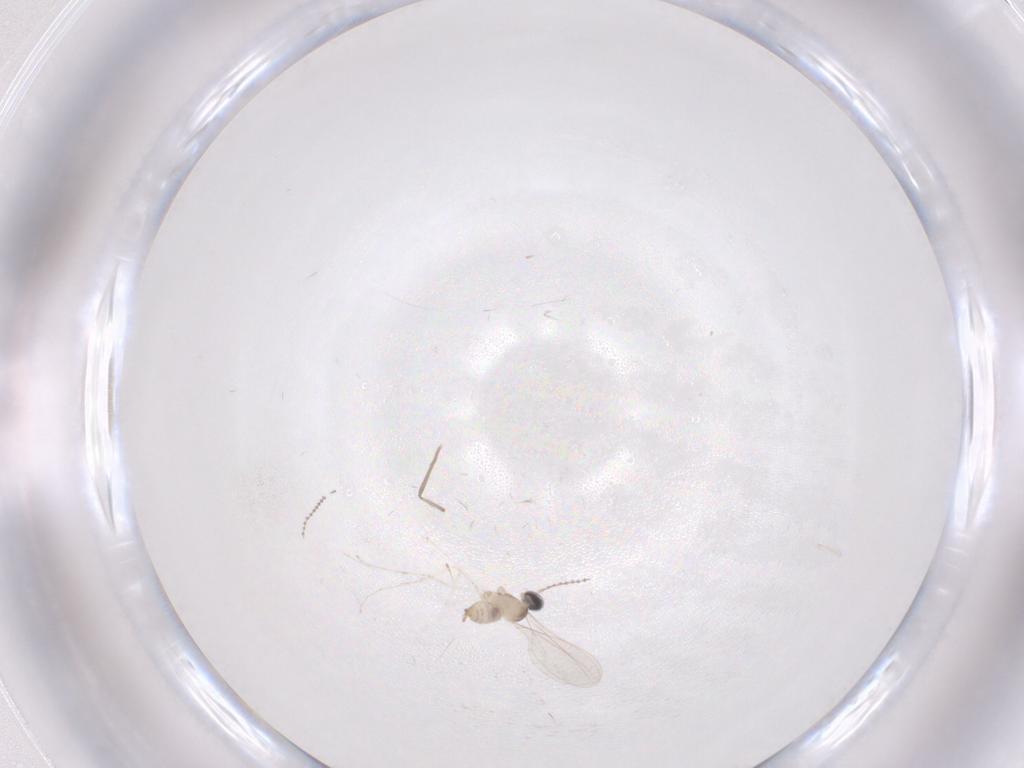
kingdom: Animalia
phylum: Arthropoda
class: Insecta
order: Diptera
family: Cecidomyiidae
